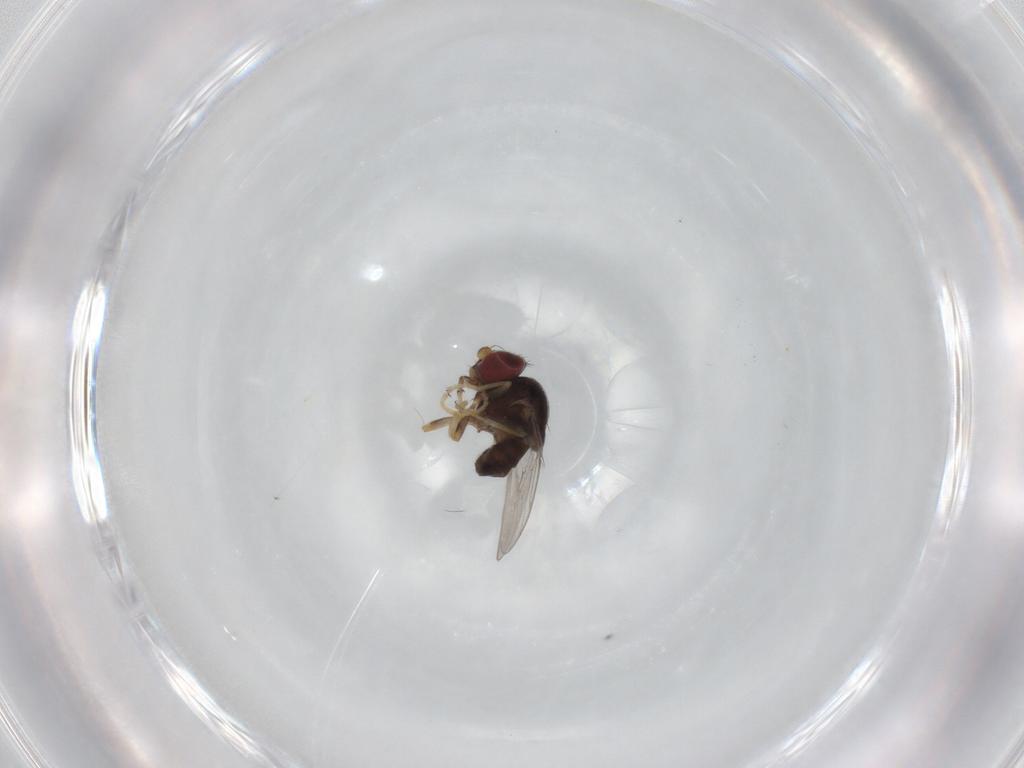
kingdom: Animalia
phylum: Arthropoda
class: Insecta
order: Diptera
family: Chloropidae
